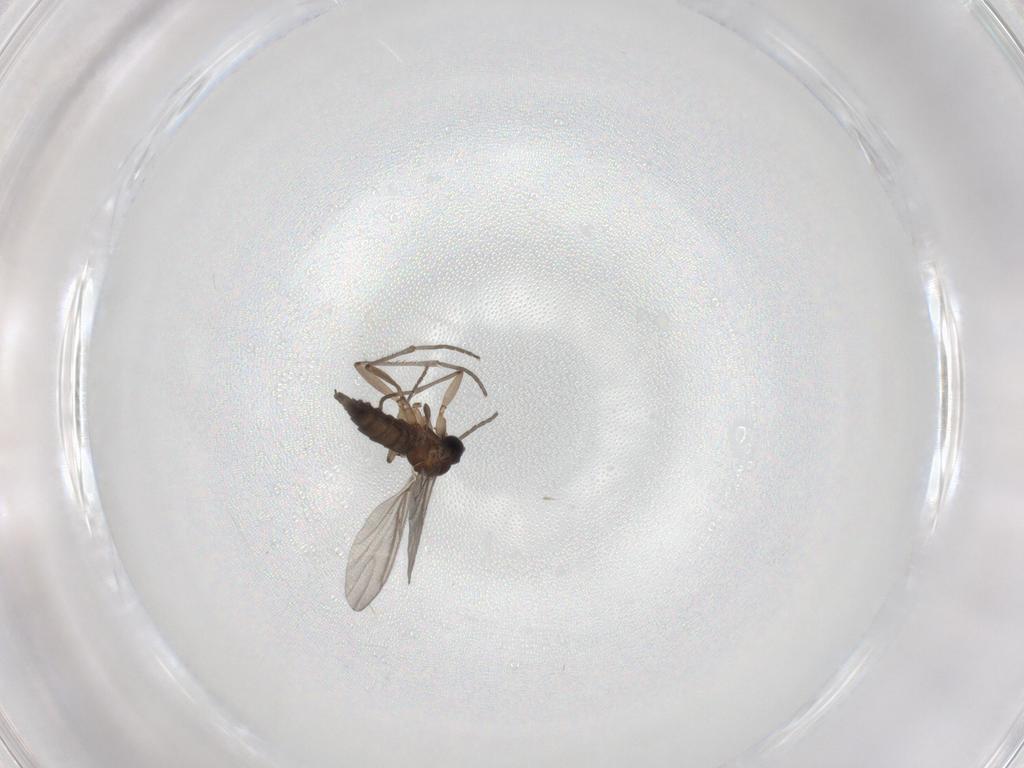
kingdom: Animalia
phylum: Arthropoda
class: Insecta
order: Diptera
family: Sciaridae
